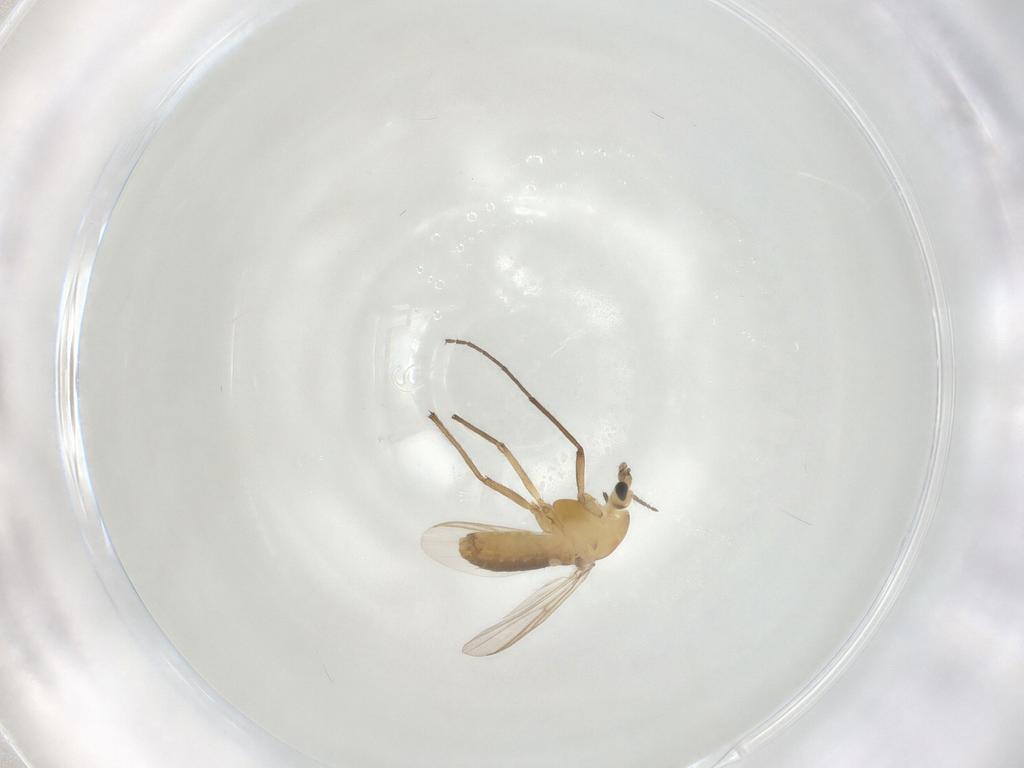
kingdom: Animalia
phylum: Arthropoda
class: Insecta
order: Diptera
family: Chironomidae
